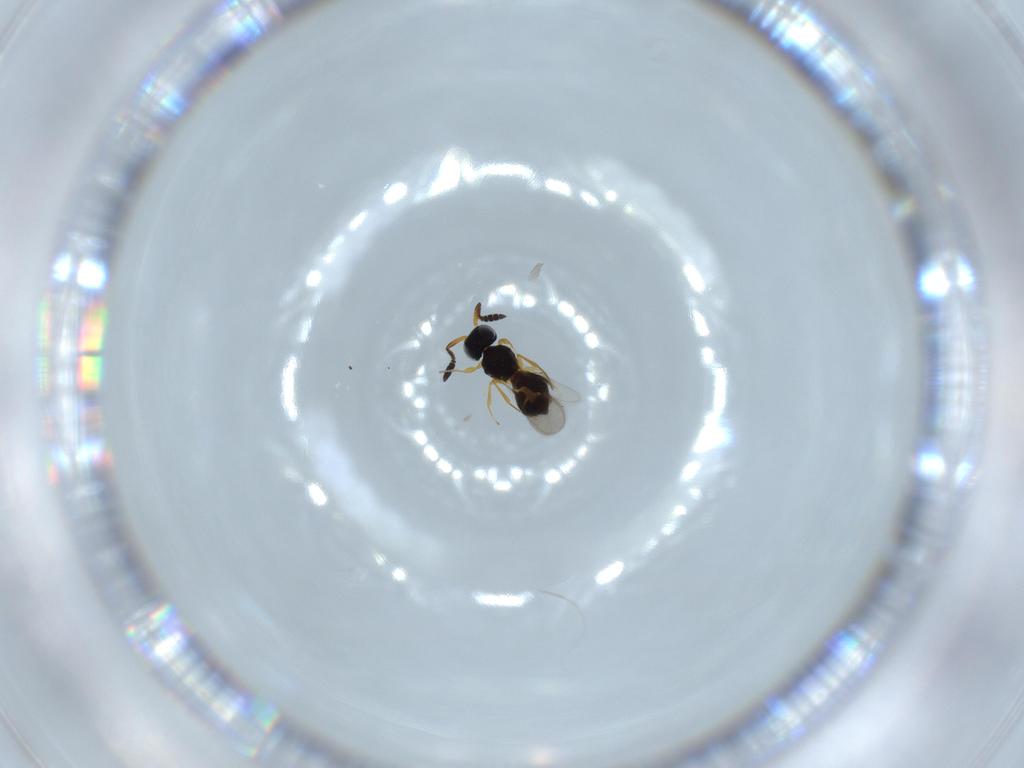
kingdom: Animalia
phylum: Arthropoda
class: Insecta
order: Hymenoptera
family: Scelionidae
